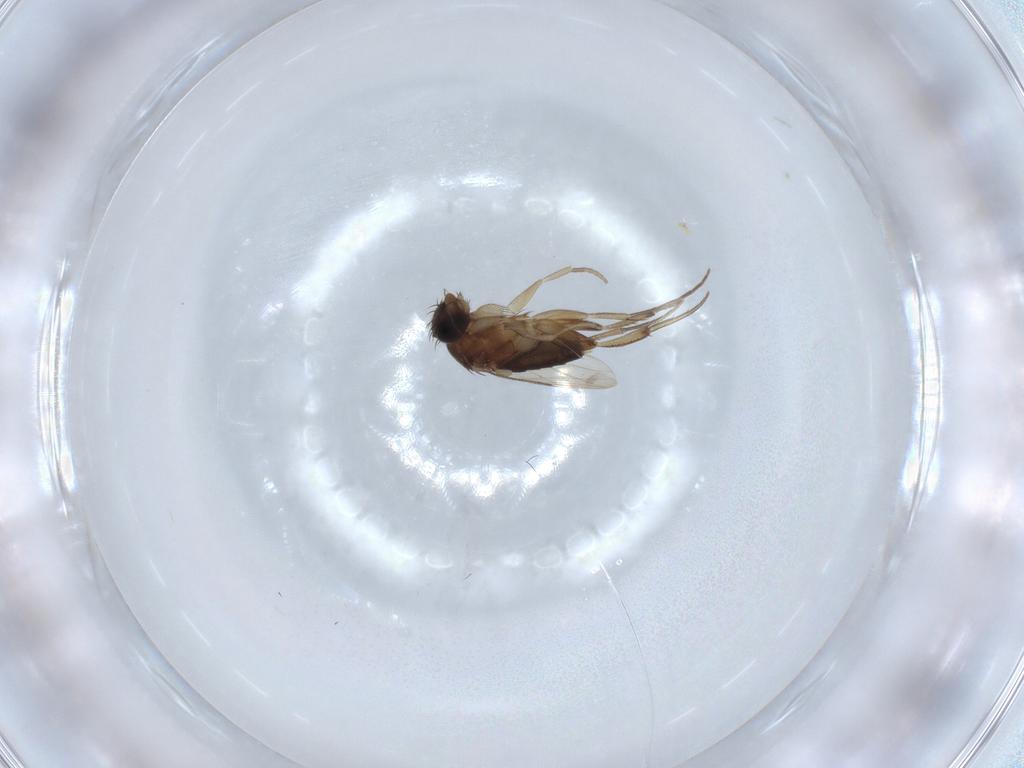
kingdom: Animalia
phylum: Arthropoda
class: Insecta
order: Diptera
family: Phoridae
